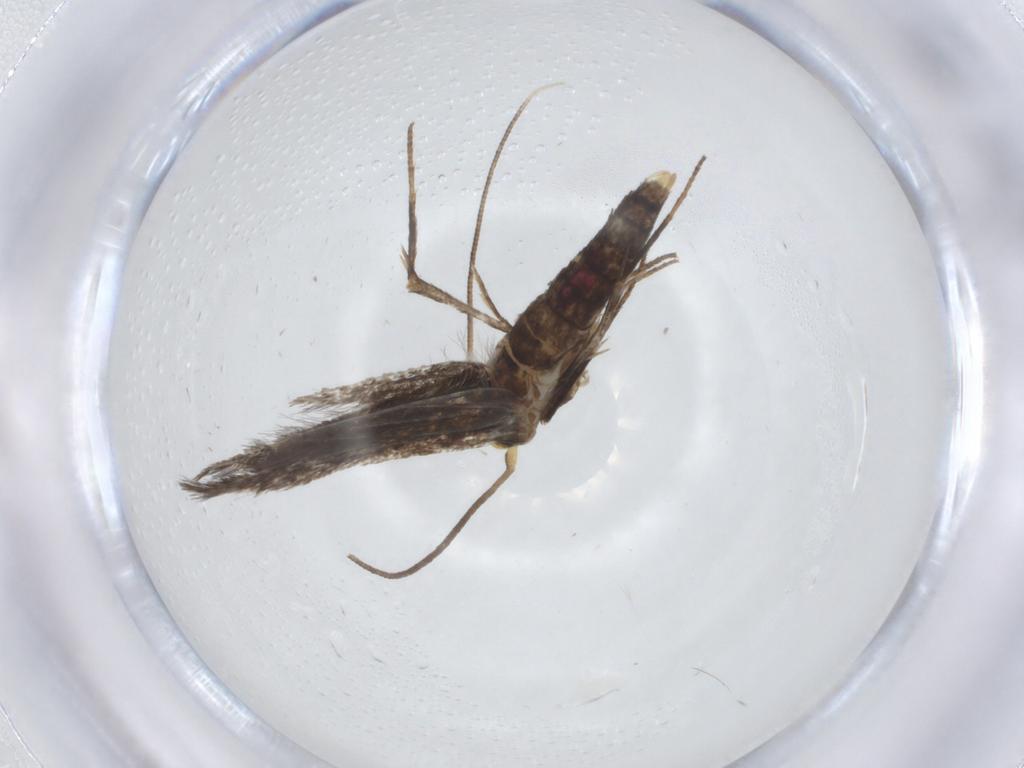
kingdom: Animalia
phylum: Arthropoda
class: Insecta
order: Lepidoptera
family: Gelechiidae
